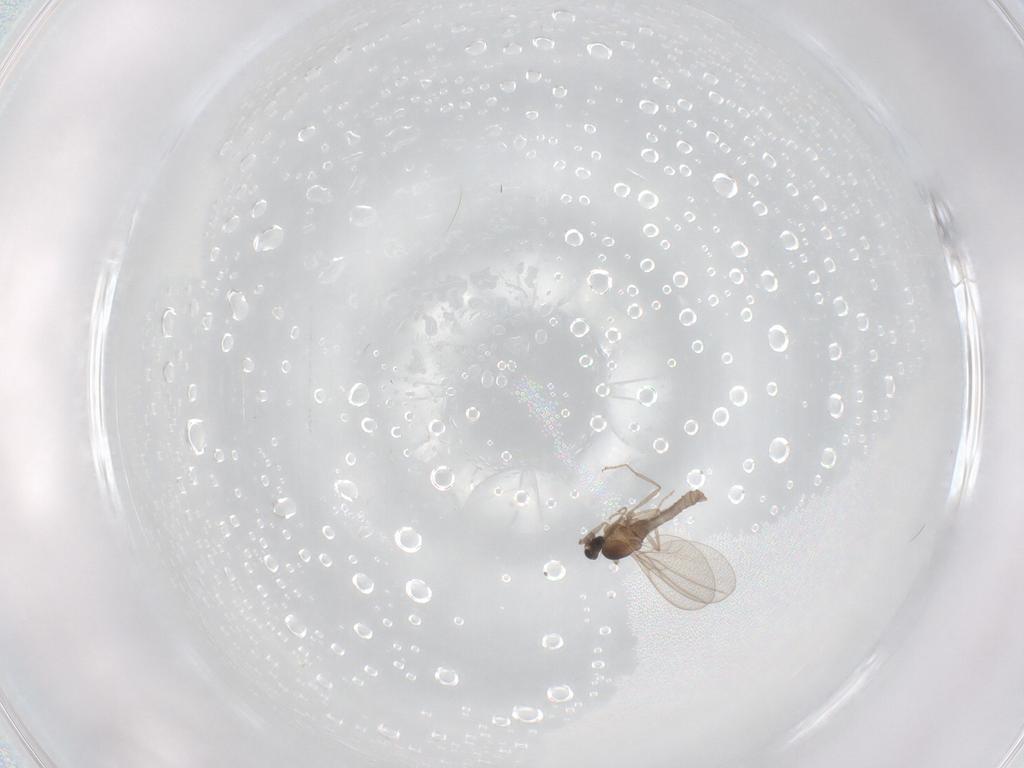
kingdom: Animalia
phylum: Arthropoda
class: Insecta
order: Diptera
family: Cecidomyiidae
